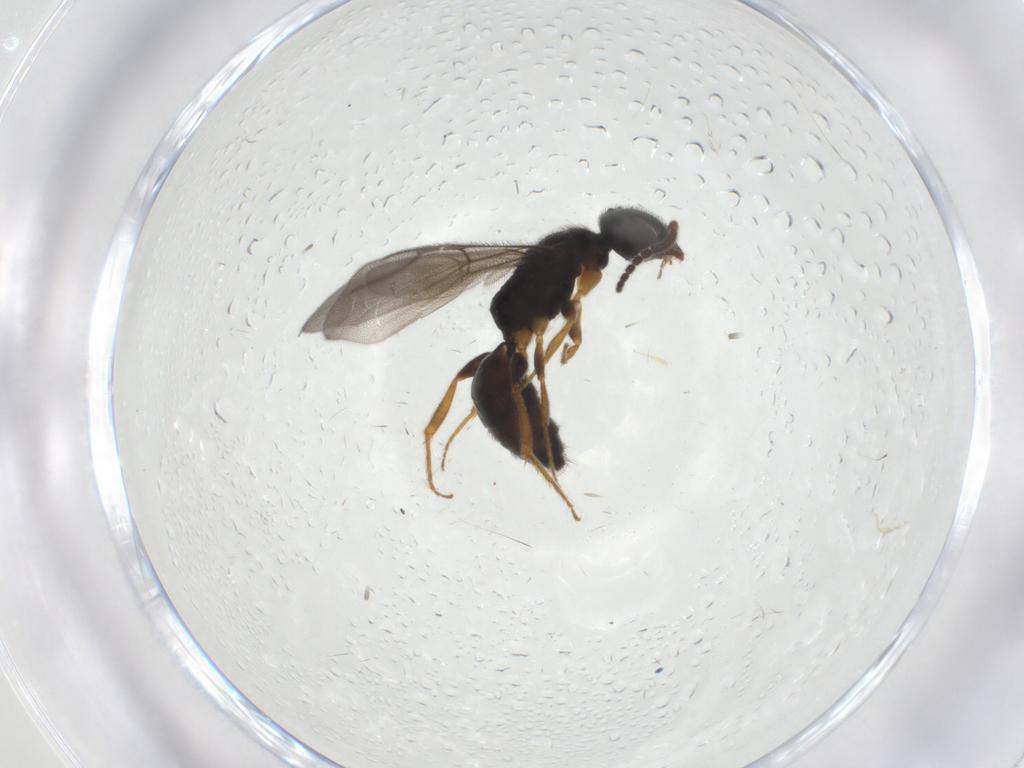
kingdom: Animalia
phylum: Arthropoda
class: Insecta
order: Hymenoptera
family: Bethylidae
